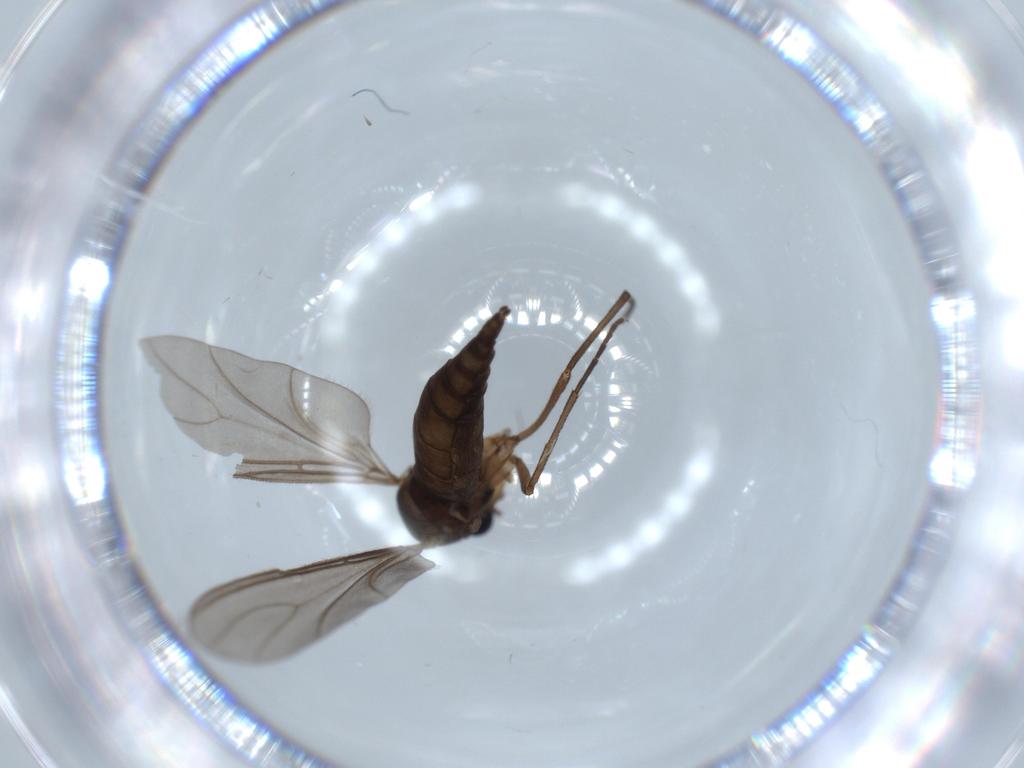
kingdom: Animalia
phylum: Arthropoda
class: Insecta
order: Diptera
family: Sciaridae
